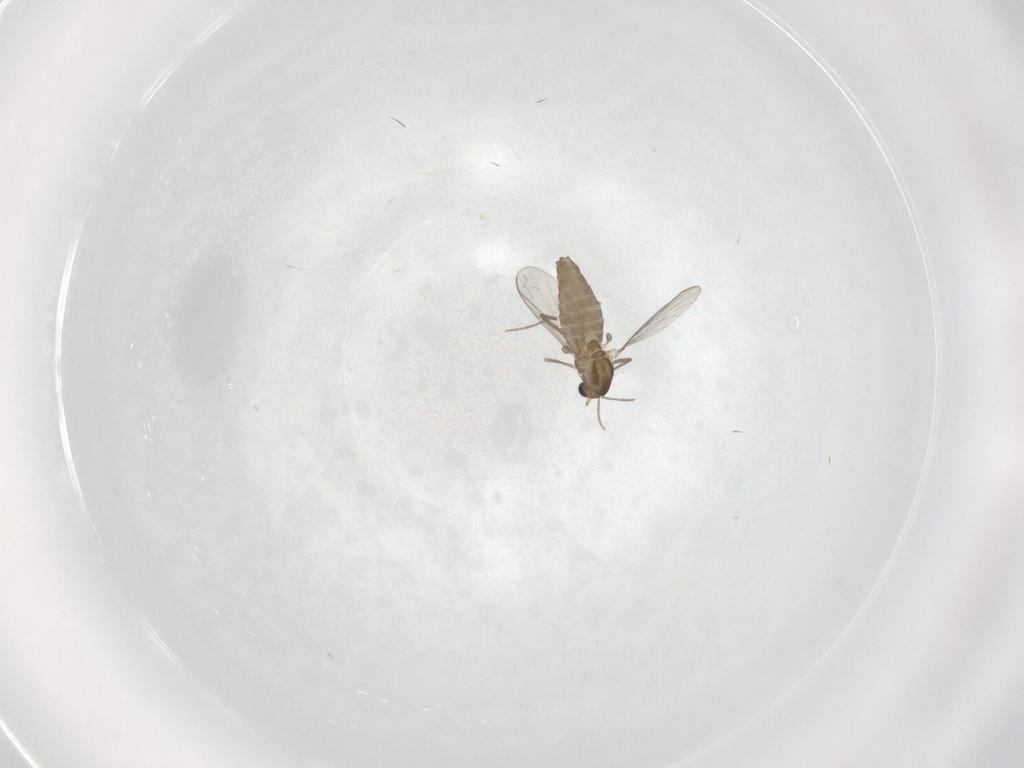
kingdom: Animalia
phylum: Arthropoda
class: Insecta
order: Diptera
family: Chironomidae
